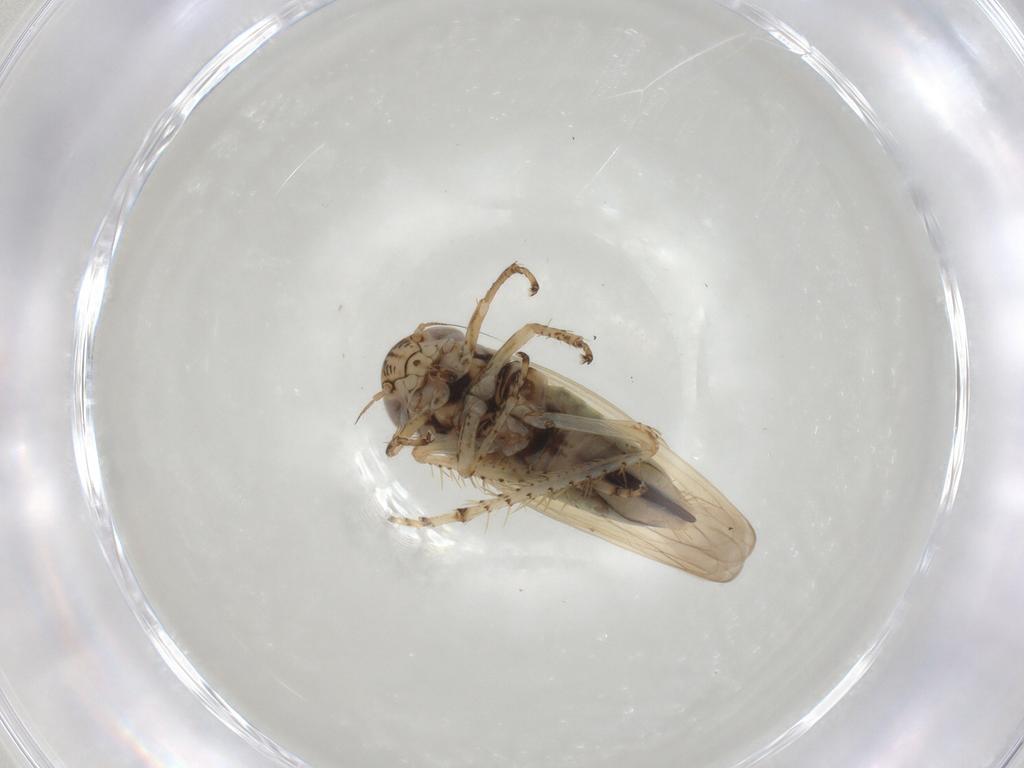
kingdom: Animalia
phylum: Arthropoda
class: Insecta
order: Hemiptera
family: Cicadellidae
